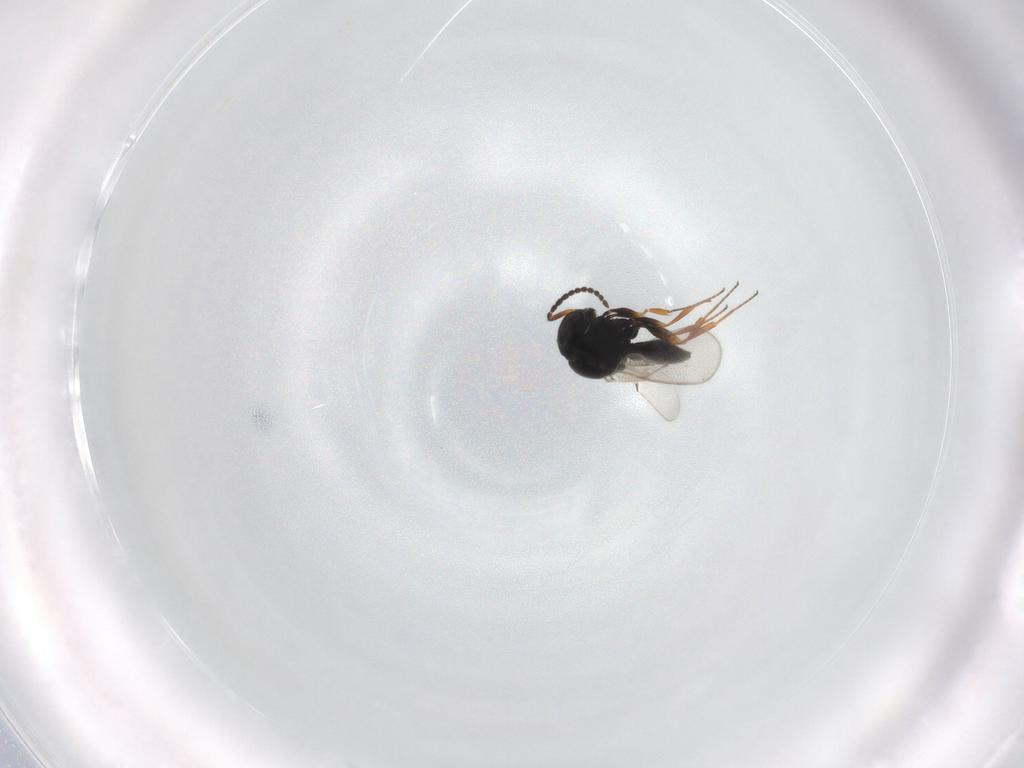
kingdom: Animalia
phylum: Arthropoda
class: Insecta
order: Hymenoptera
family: Scelionidae
